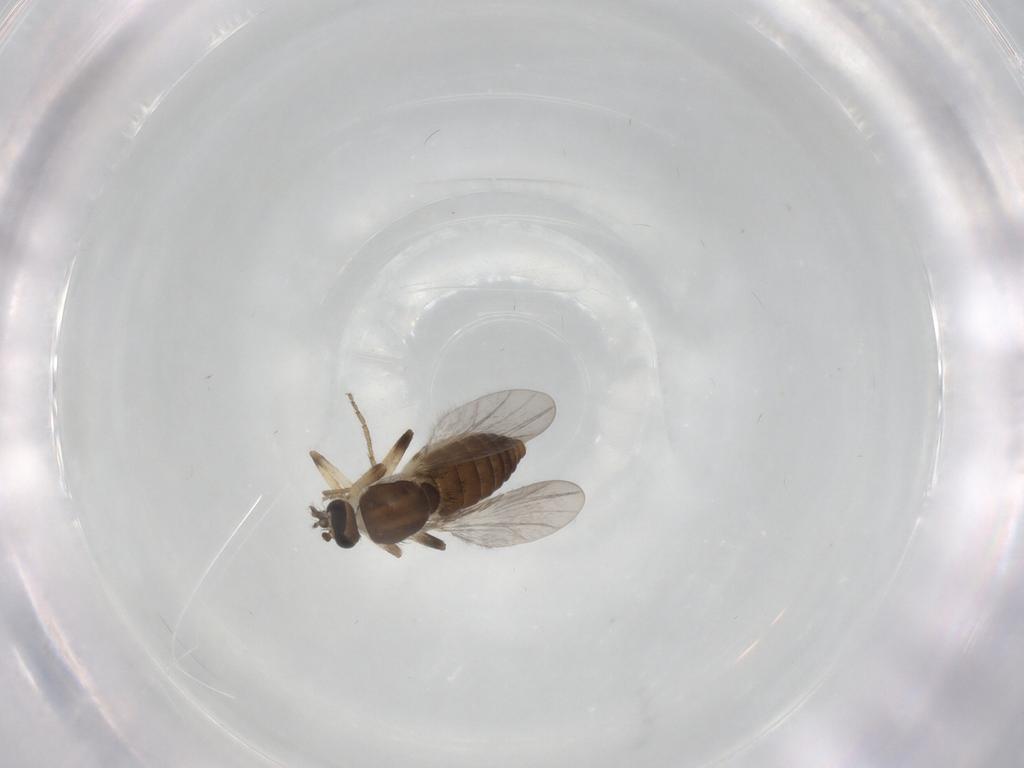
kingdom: Animalia
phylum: Arthropoda
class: Insecta
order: Diptera
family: Ceratopogonidae
